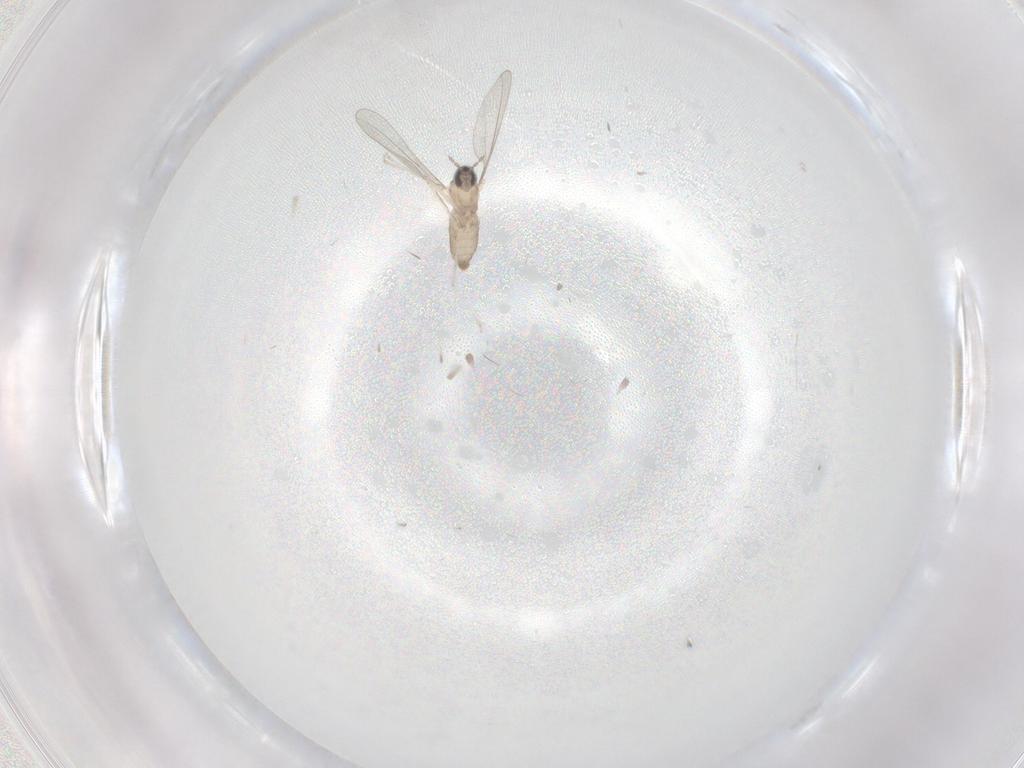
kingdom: Animalia
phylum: Arthropoda
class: Insecta
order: Diptera
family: Cecidomyiidae
